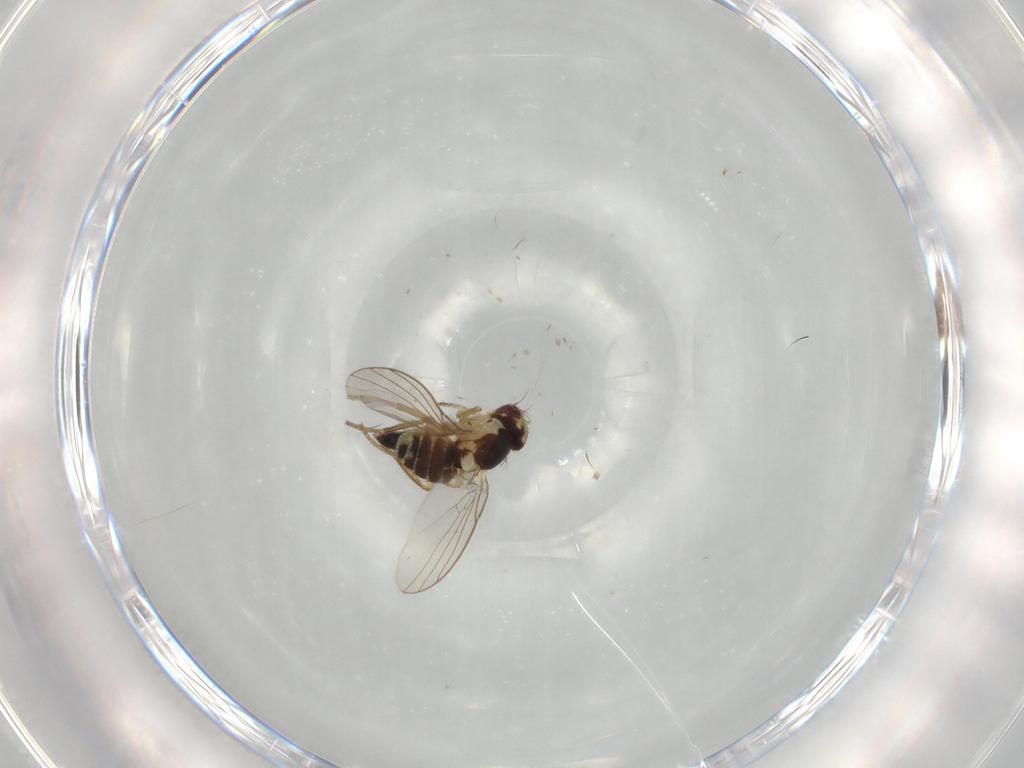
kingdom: Animalia
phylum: Arthropoda
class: Insecta
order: Diptera
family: Agromyzidae
